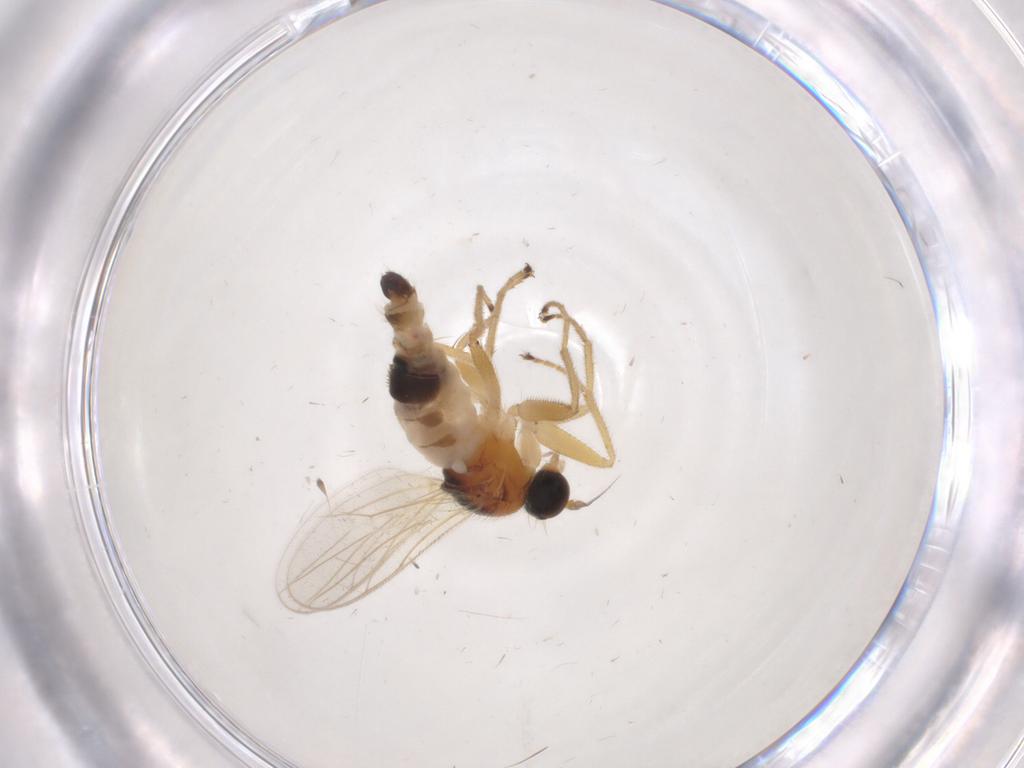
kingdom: Animalia
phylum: Arthropoda
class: Insecta
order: Diptera
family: Hybotidae
